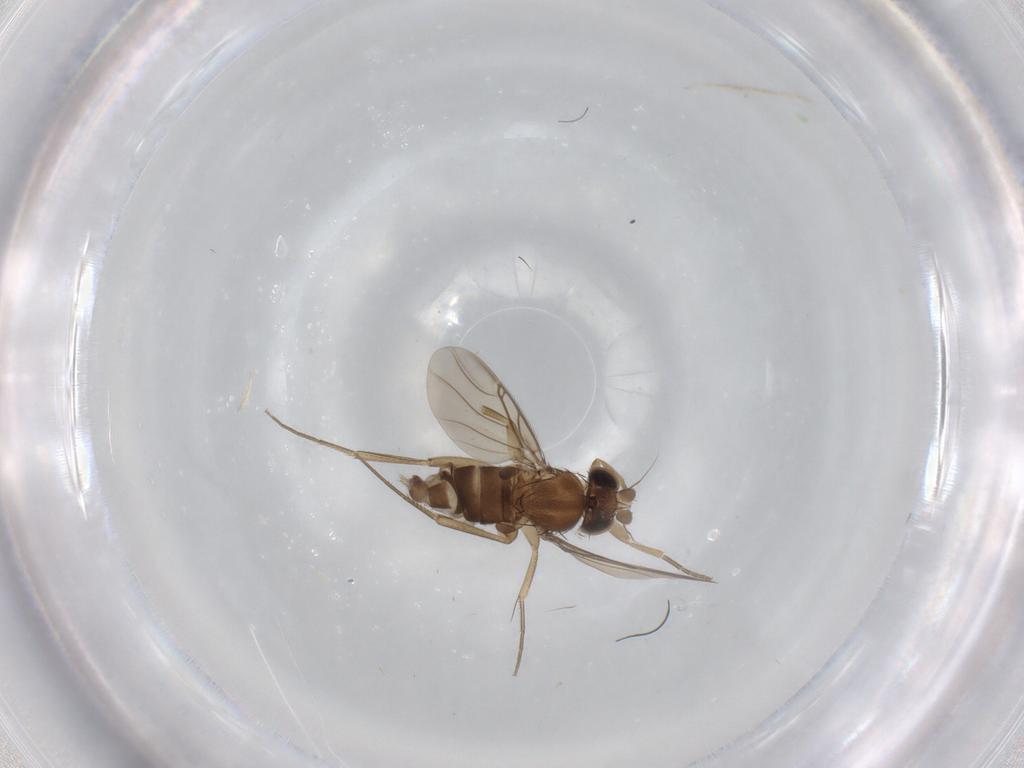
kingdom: Animalia
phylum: Arthropoda
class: Insecta
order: Diptera
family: Phoridae
